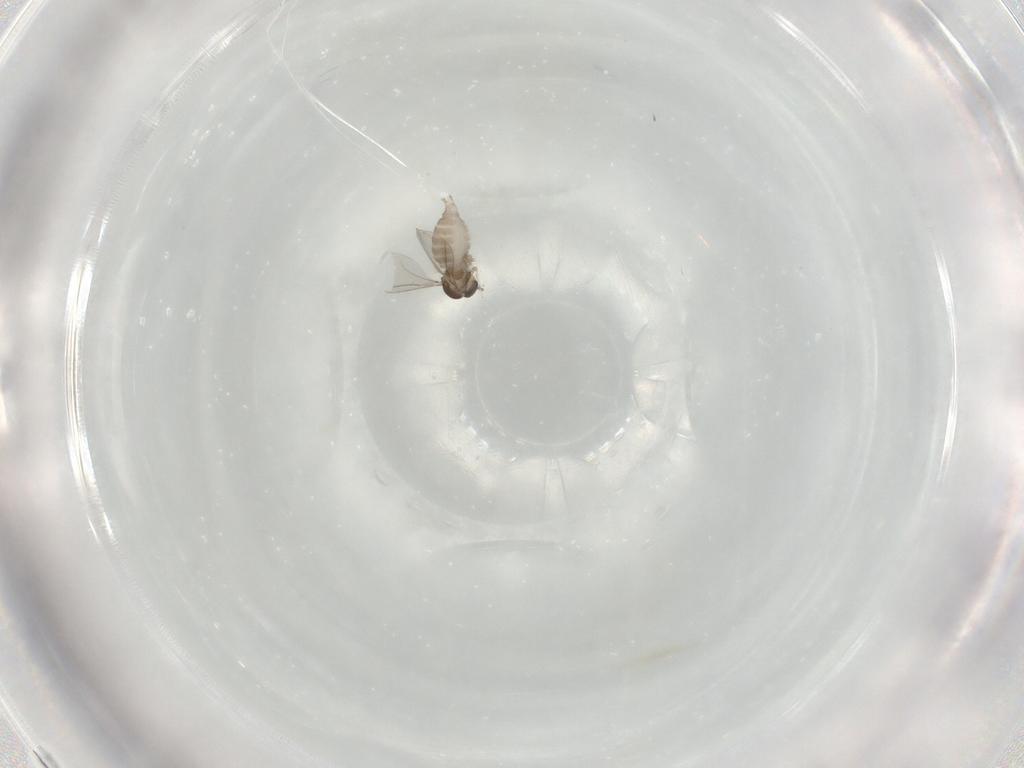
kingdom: Animalia
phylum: Arthropoda
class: Insecta
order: Diptera
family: Cecidomyiidae
